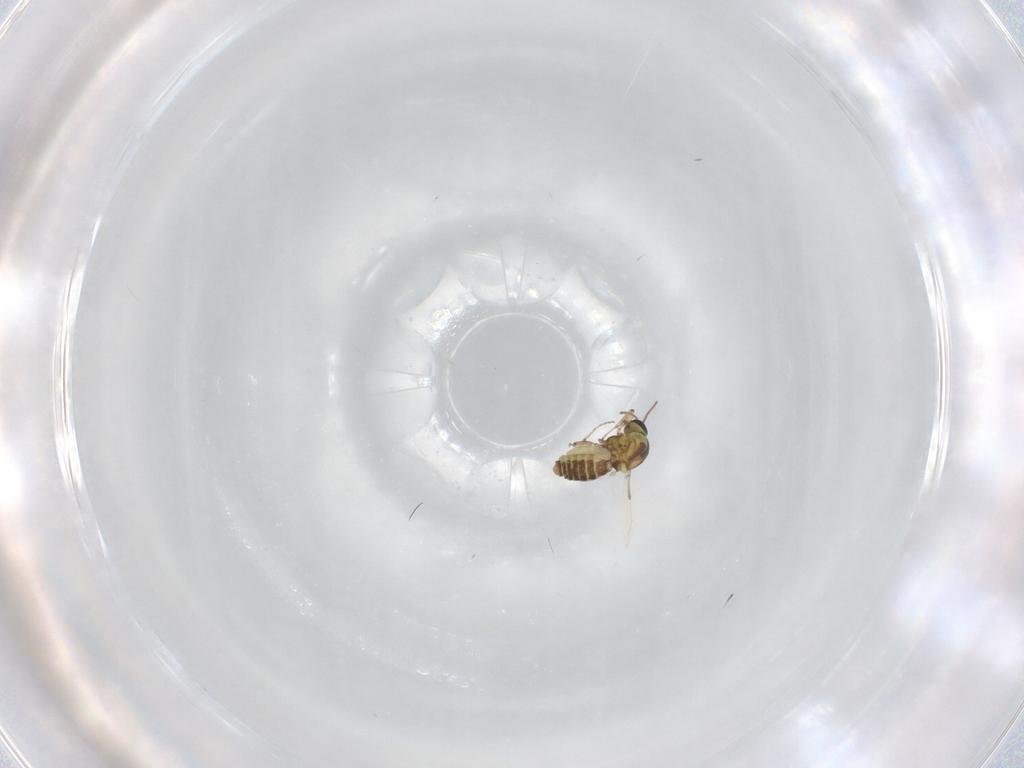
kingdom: Animalia
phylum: Arthropoda
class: Insecta
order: Diptera
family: Ceratopogonidae
